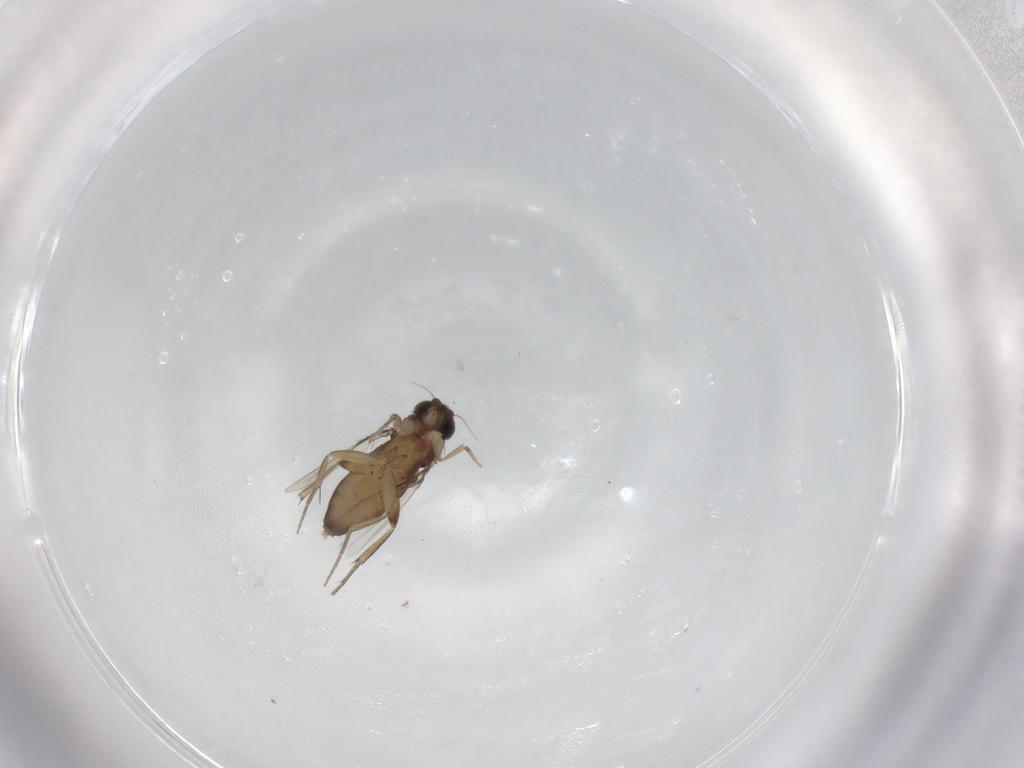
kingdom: Animalia
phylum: Arthropoda
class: Insecta
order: Diptera
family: Phoridae
